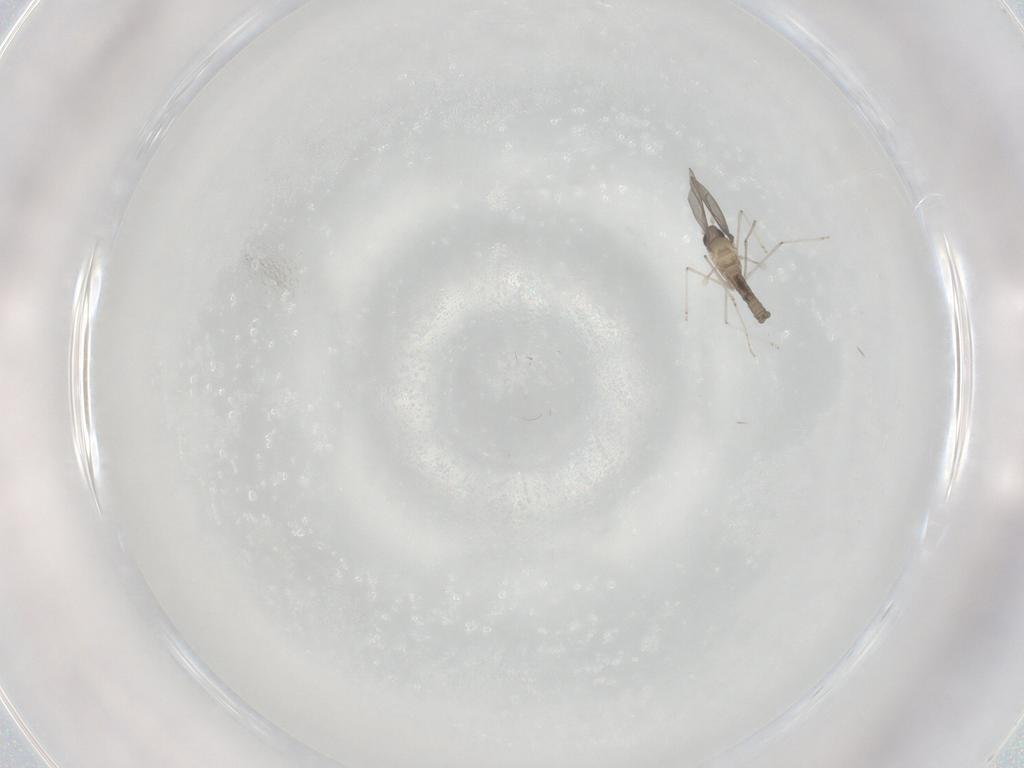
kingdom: Animalia
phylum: Arthropoda
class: Insecta
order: Diptera
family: Cecidomyiidae
